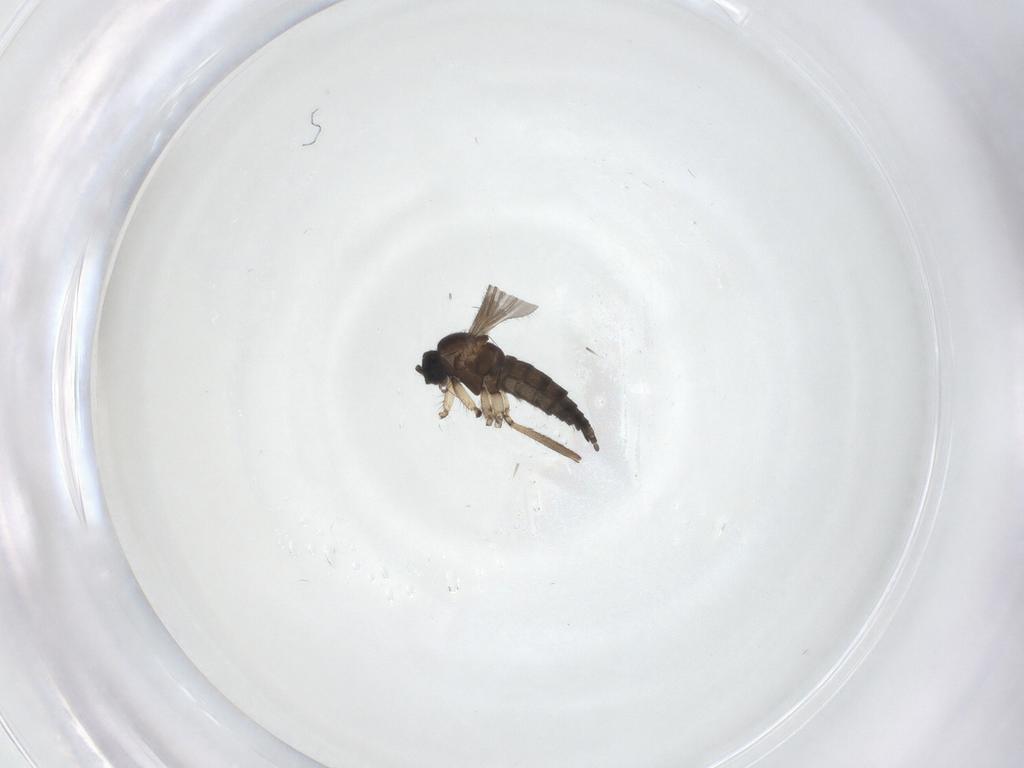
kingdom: Animalia
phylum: Arthropoda
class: Insecta
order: Diptera
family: Sciaridae
